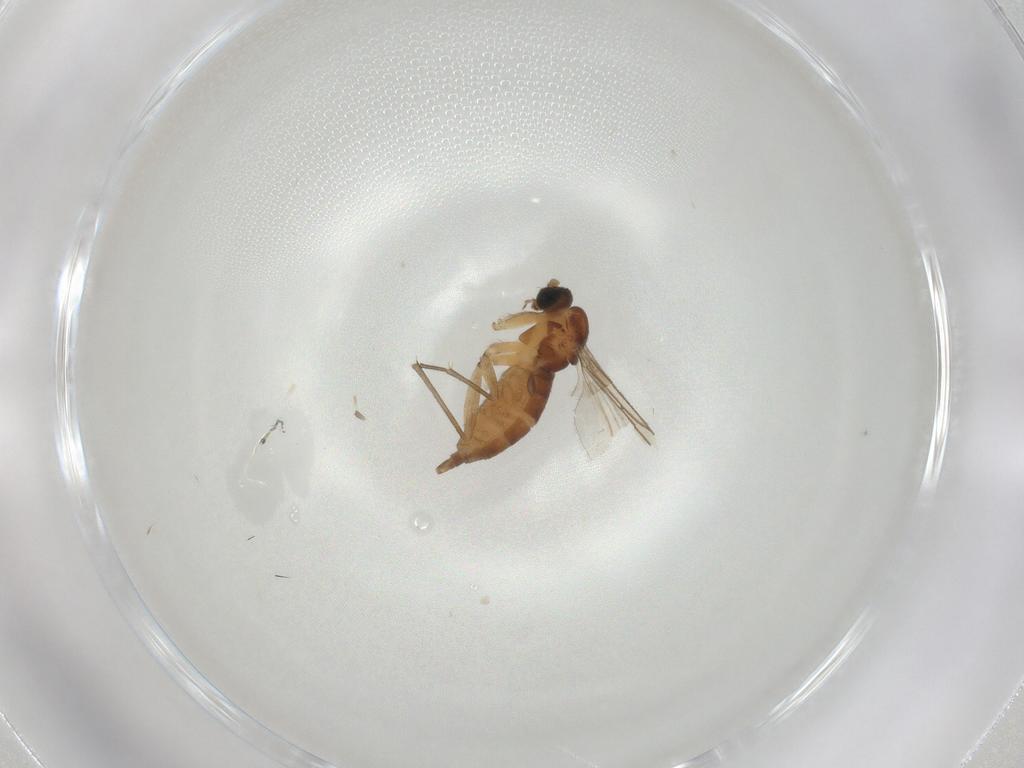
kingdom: Animalia
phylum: Arthropoda
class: Insecta
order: Diptera
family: Sciaridae
